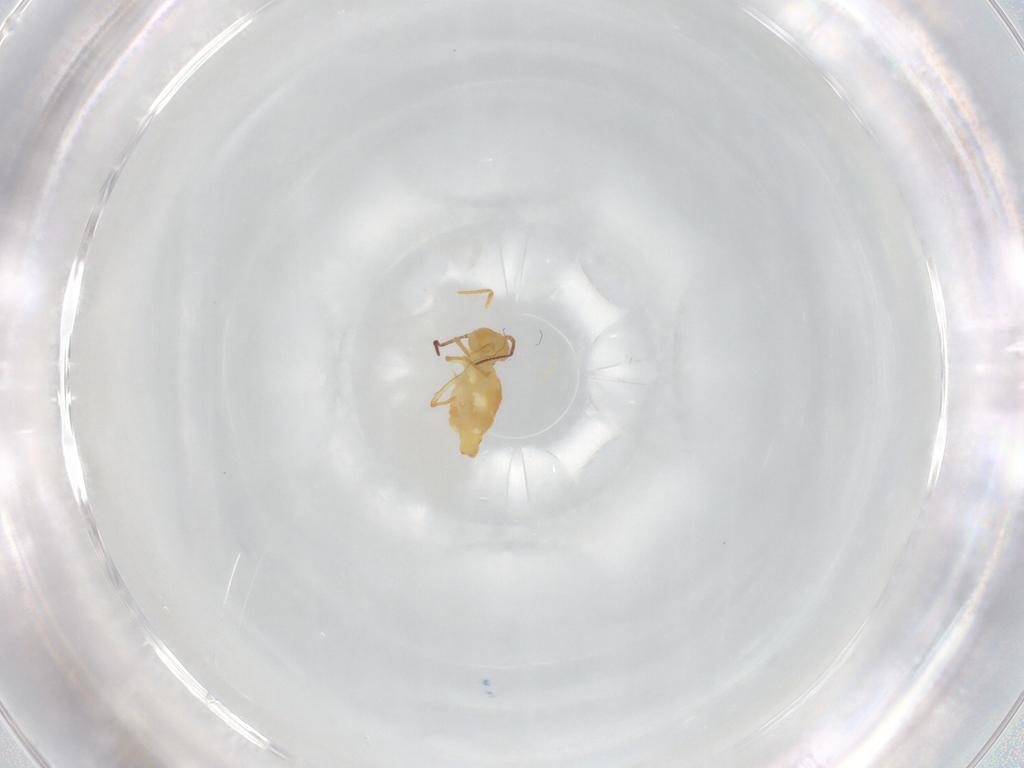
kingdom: Animalia
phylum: Arthropoda
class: Collembola
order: Symphypleona
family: Bourletiellidae
